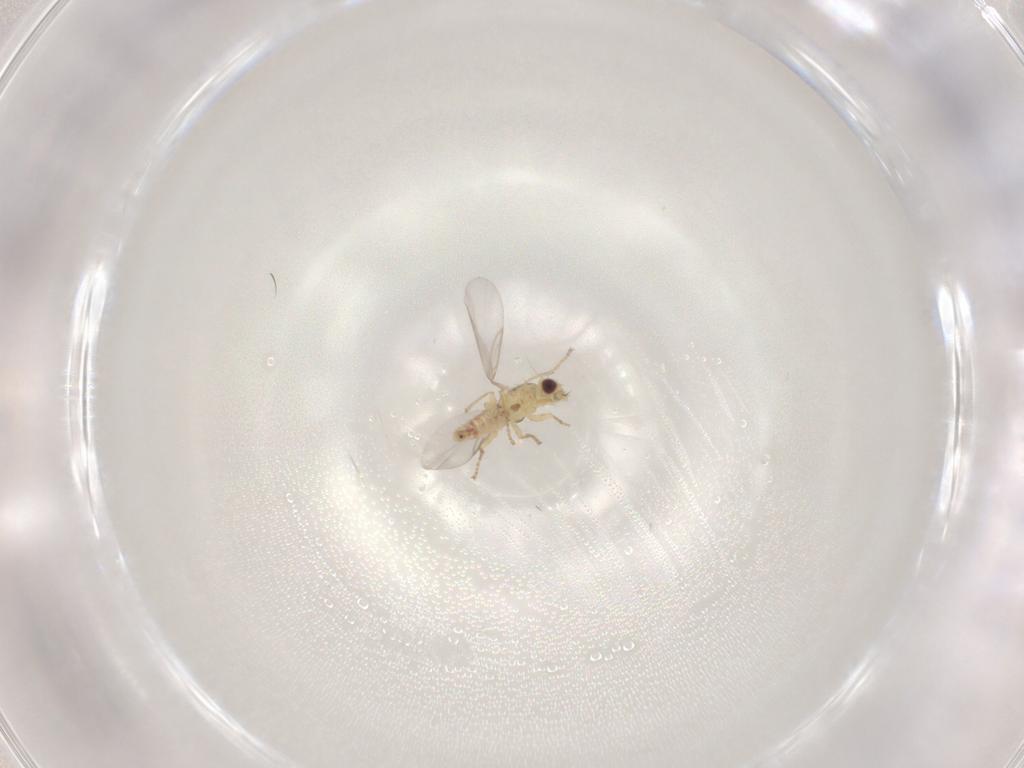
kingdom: Animalia
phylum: Arthropoda
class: Insecta
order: Diptera
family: Agromyzidae
